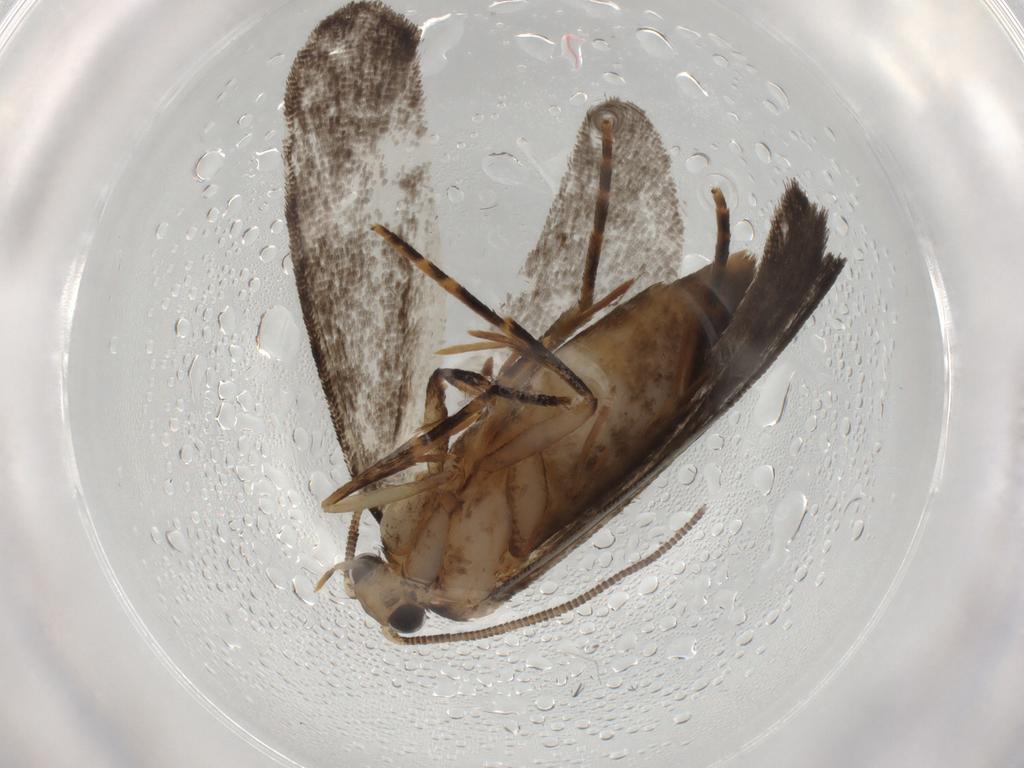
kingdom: Animalia
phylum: Arthropoda
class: Insecta
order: Lepidoptera
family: Tineidae
